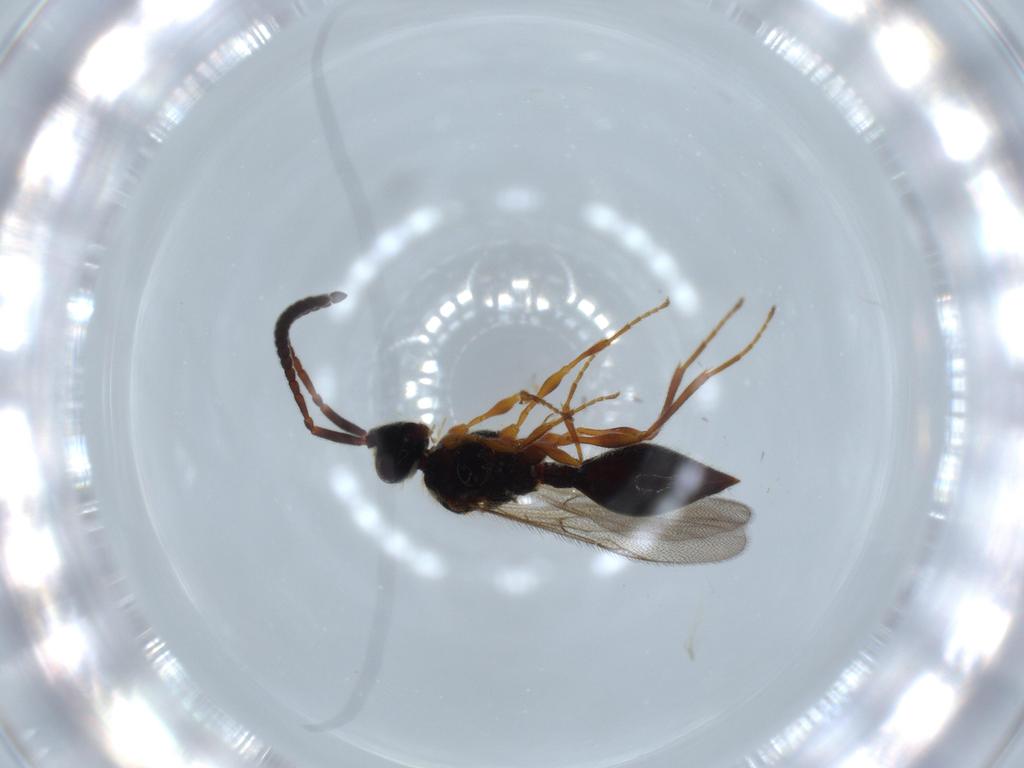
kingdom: Animalia
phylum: Arthropoda
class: Insecta
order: Hymenoptera
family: Diapriidae
